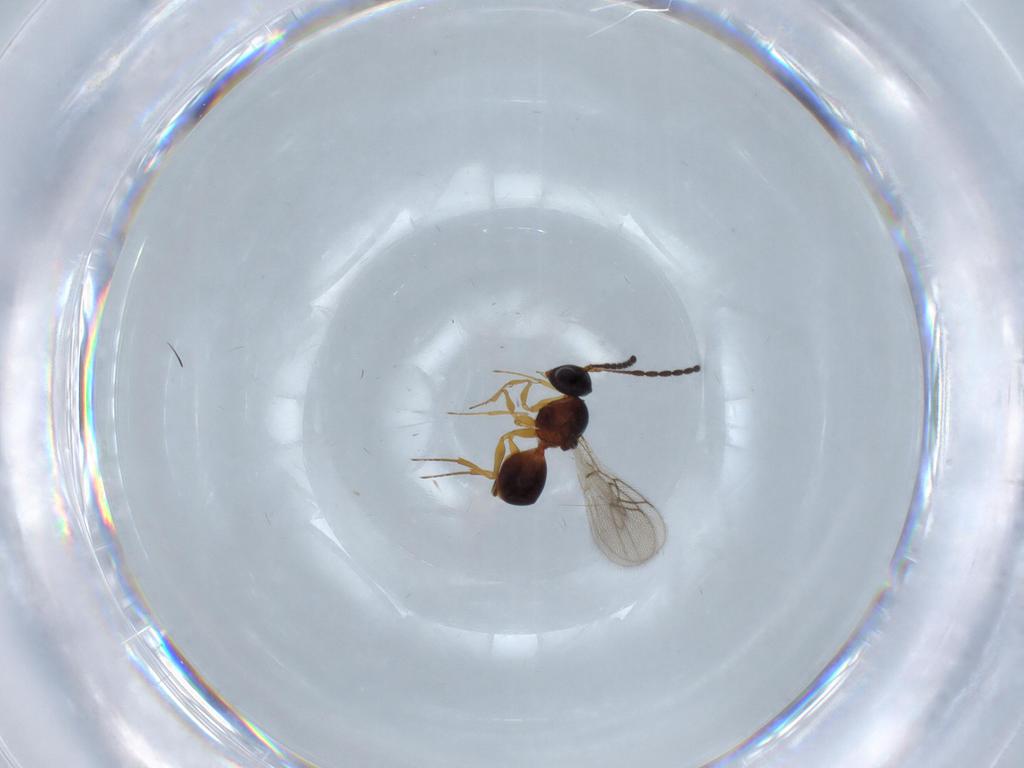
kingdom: Animalia
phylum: Arthropoda
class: Insecta
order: Hymenoptera
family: Figitidae
